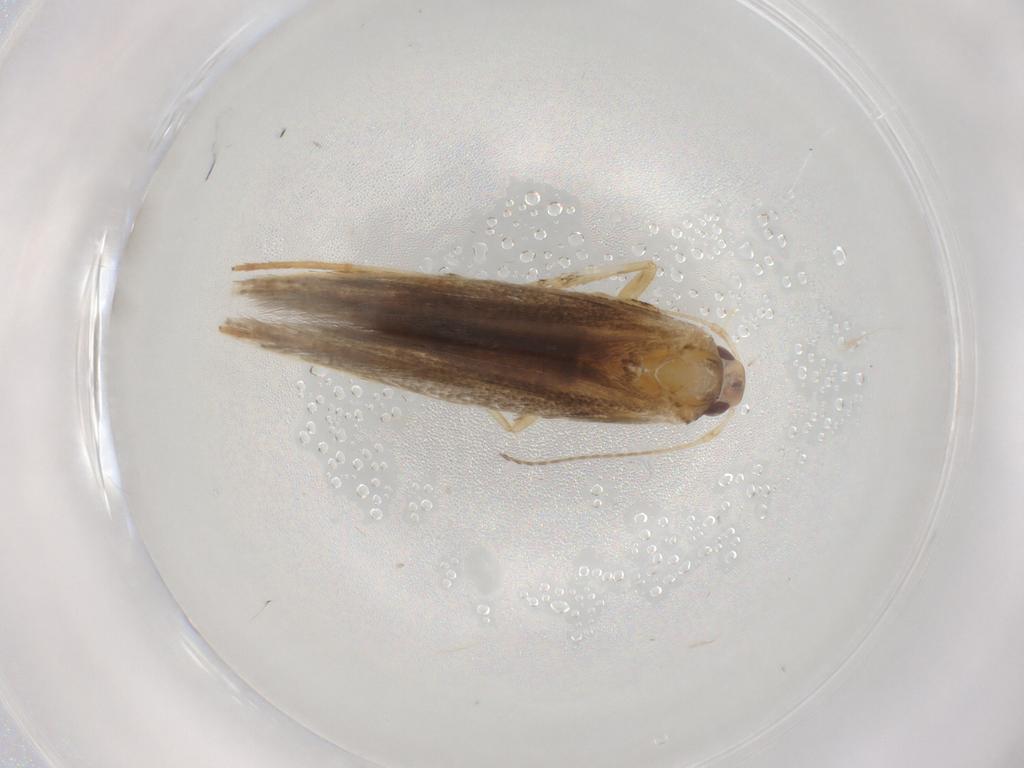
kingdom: Animalia
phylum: Arthropoda
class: Insecta
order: Lepidoptera
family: Cosmopterigidae
